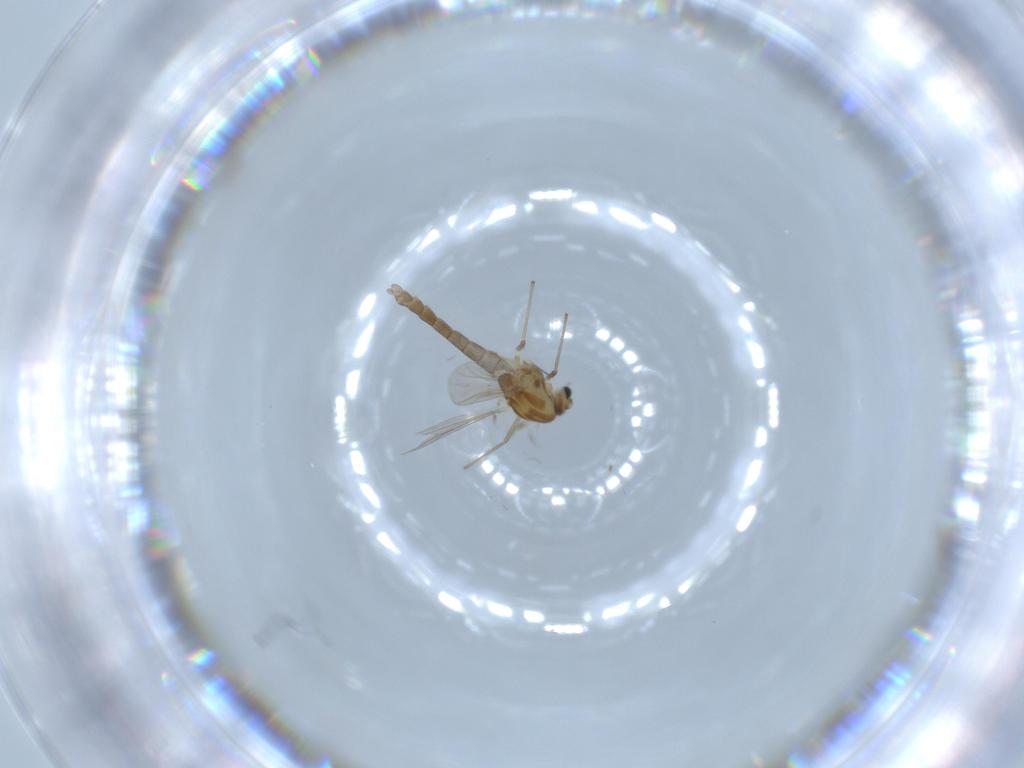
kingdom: Animalia
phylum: Arthropoda
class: Insecta
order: Diptera
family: Chironomidae
